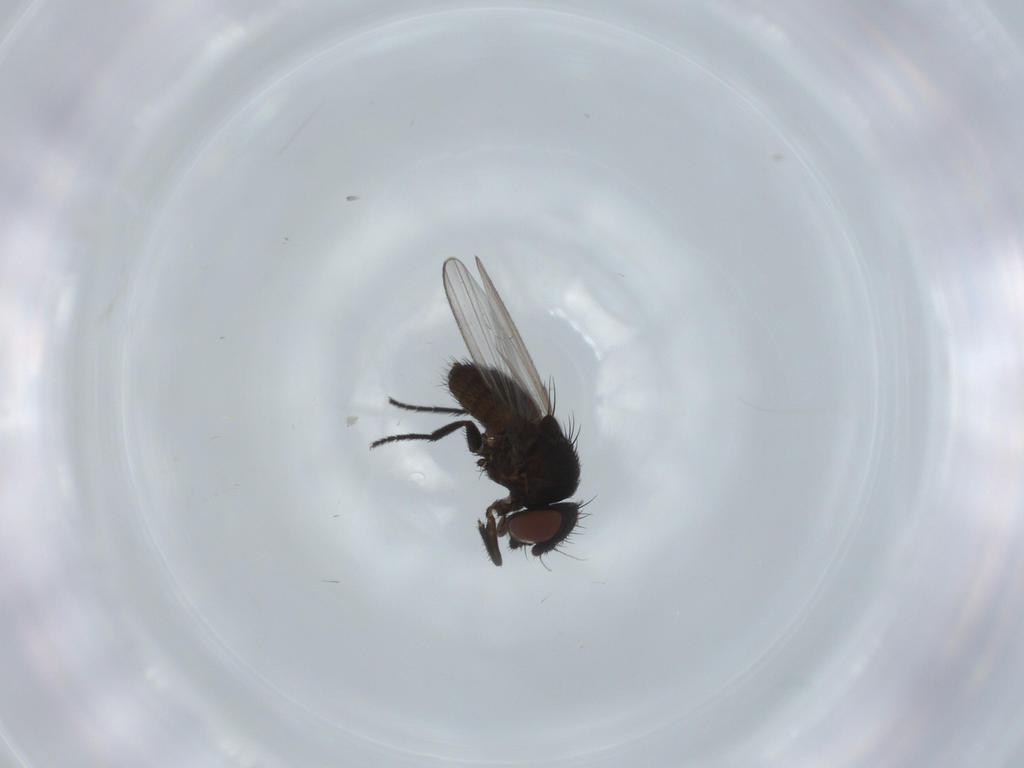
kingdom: Animalia
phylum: Arthropoda
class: Insecta
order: Diptera
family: Milichiidae
